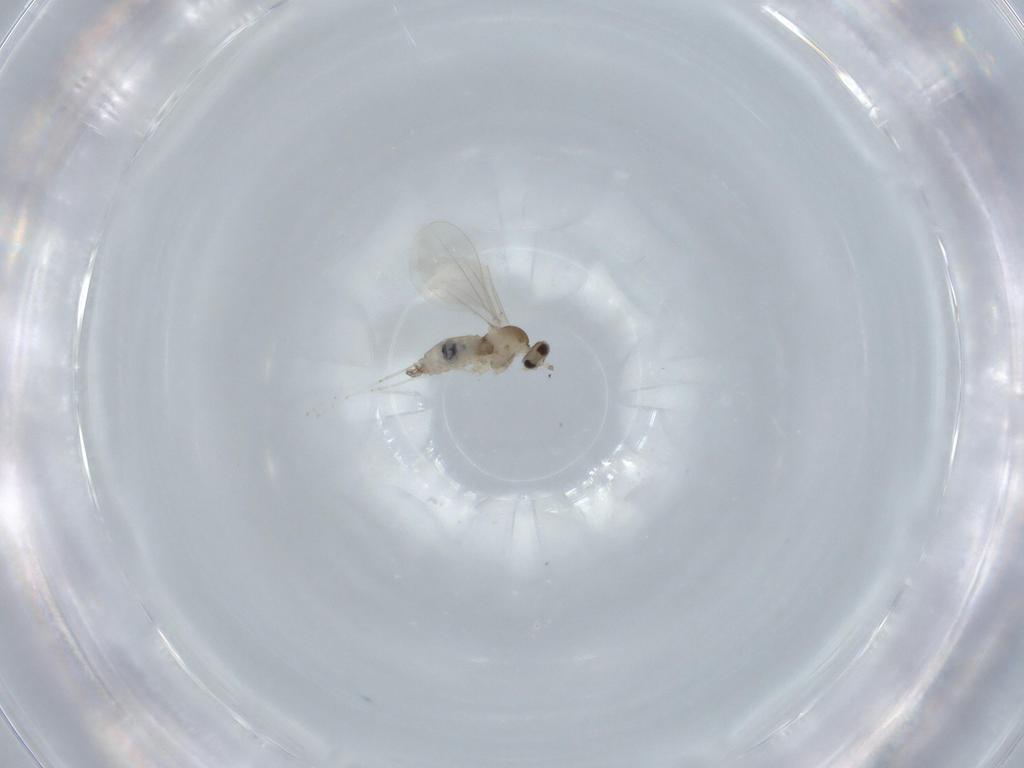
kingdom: Animalia
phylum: Arthropoda
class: Insecta
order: Diptera
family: Cecidomyiidae
